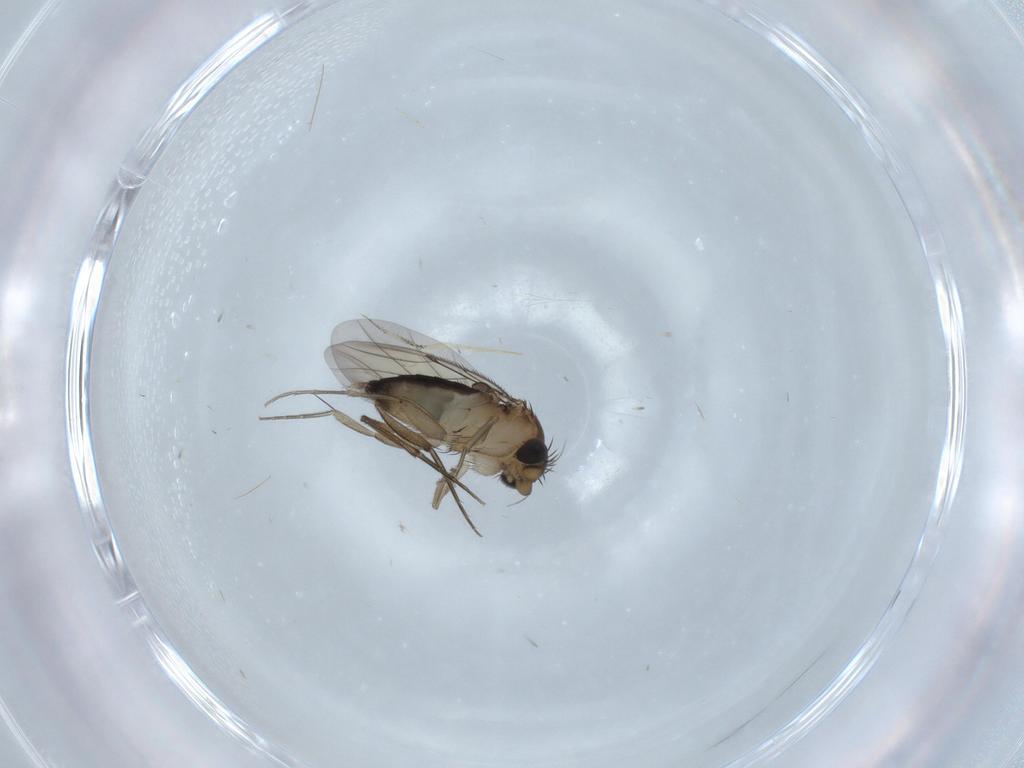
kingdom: Animalia
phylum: Arthropoda
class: Insecta
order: Diptera
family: Phoridae
